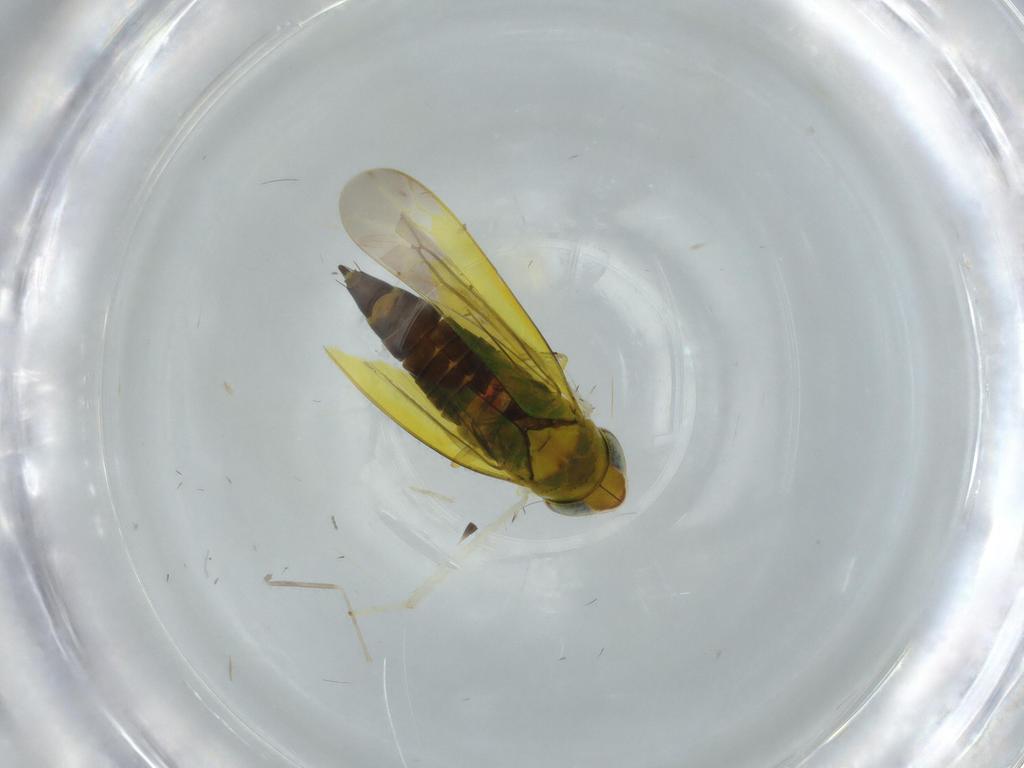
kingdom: Animalia
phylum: Arthropoda
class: Insecta
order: Hemiptera
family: Cicadellidae
